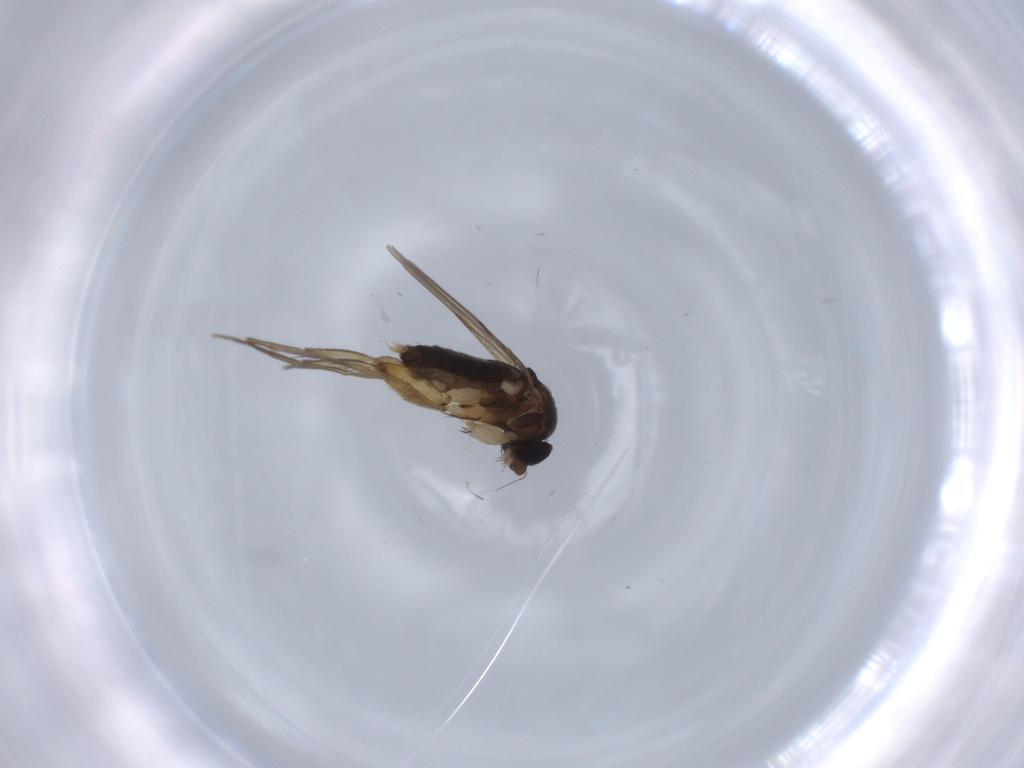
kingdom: Animalia
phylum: Arthropoda
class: Insecta
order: Diptera
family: Phoridae
